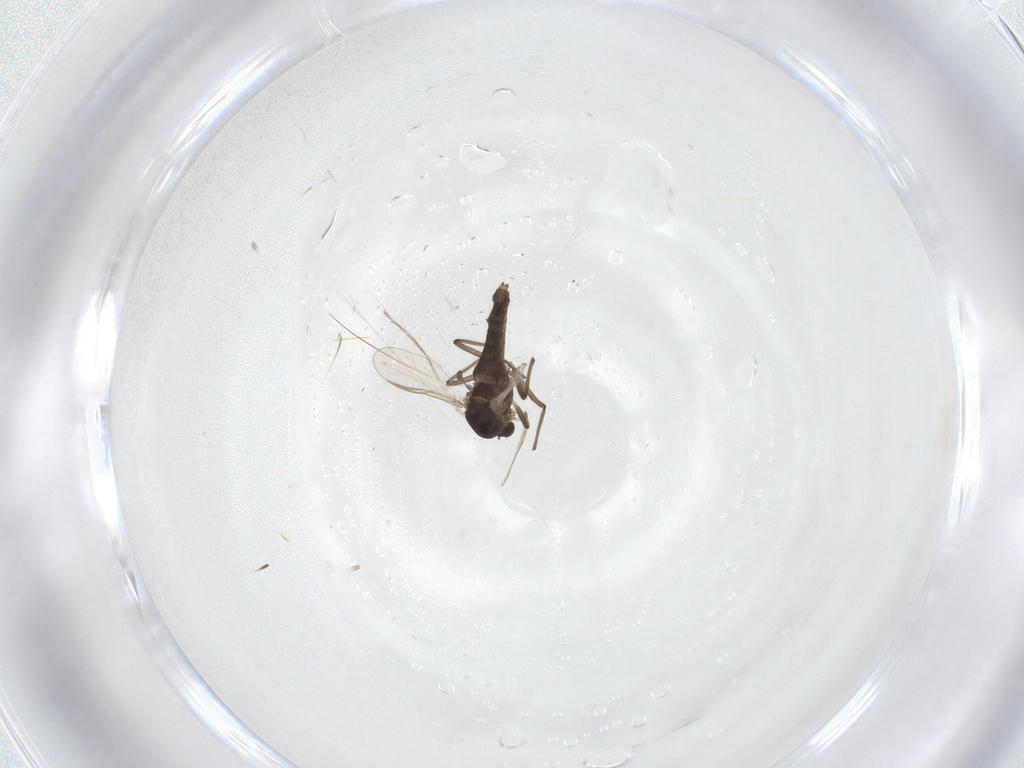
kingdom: Animalia
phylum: Arthropoda
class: Insecta
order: Diptera
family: Chironomidae
